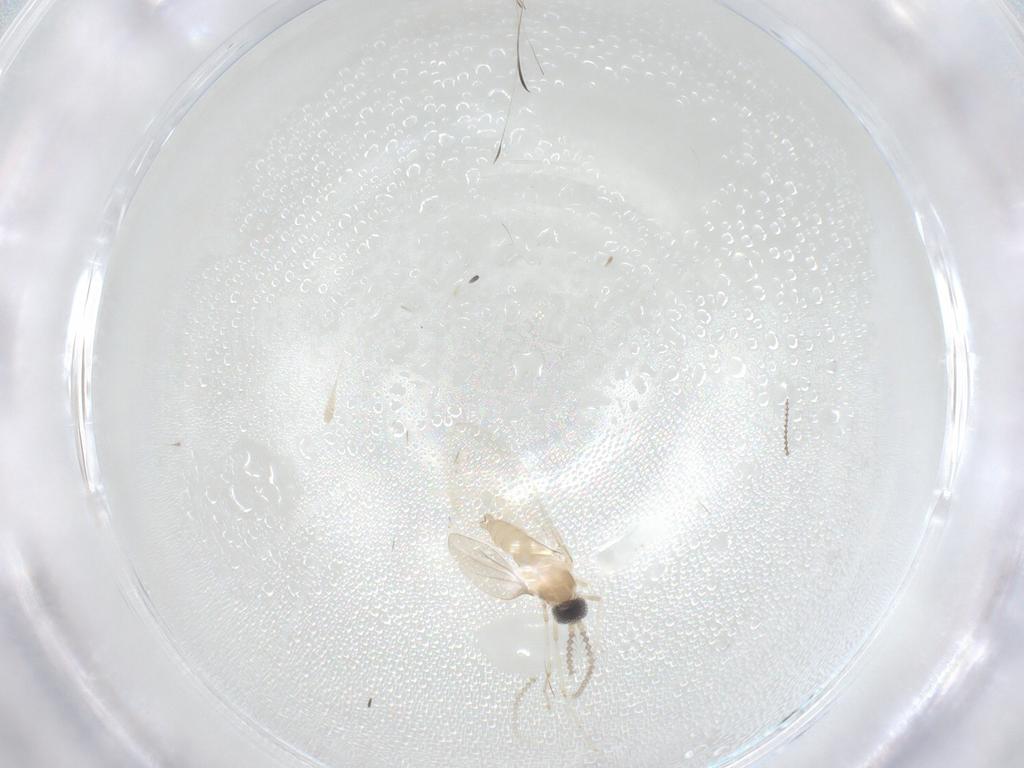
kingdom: Animalia
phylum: Arthropoda
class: Insecta
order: Diptera
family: Cecidomyiidae
